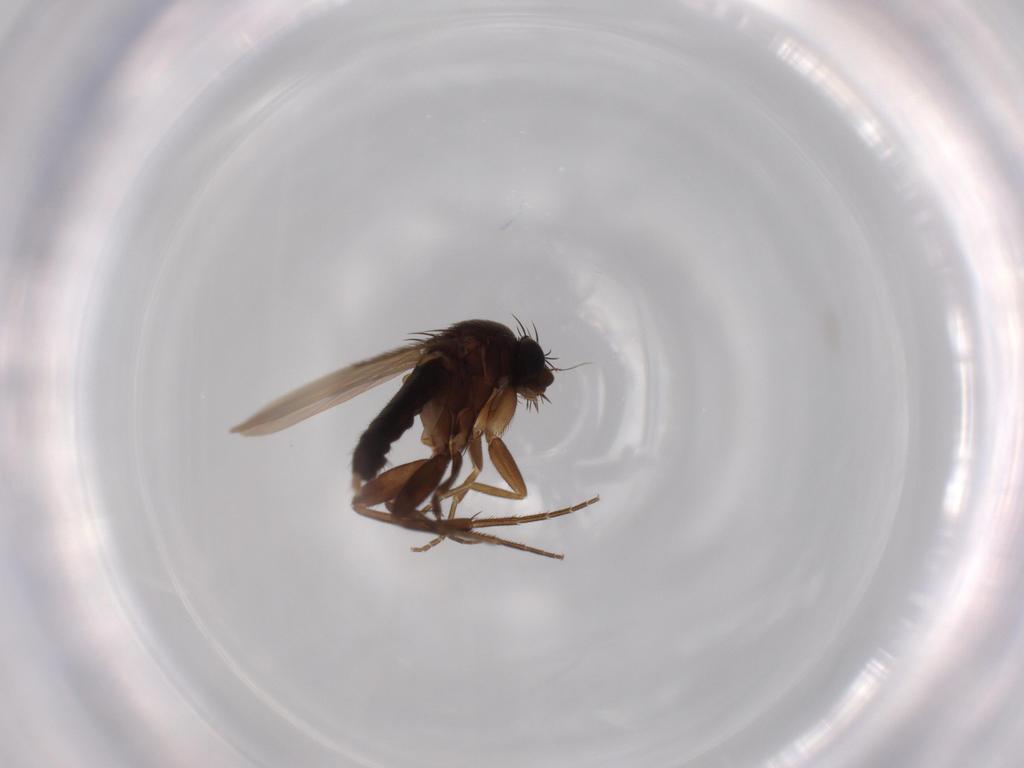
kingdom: Animalia
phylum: Arthropoda
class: Insecta
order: Diptera
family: Phoridae
